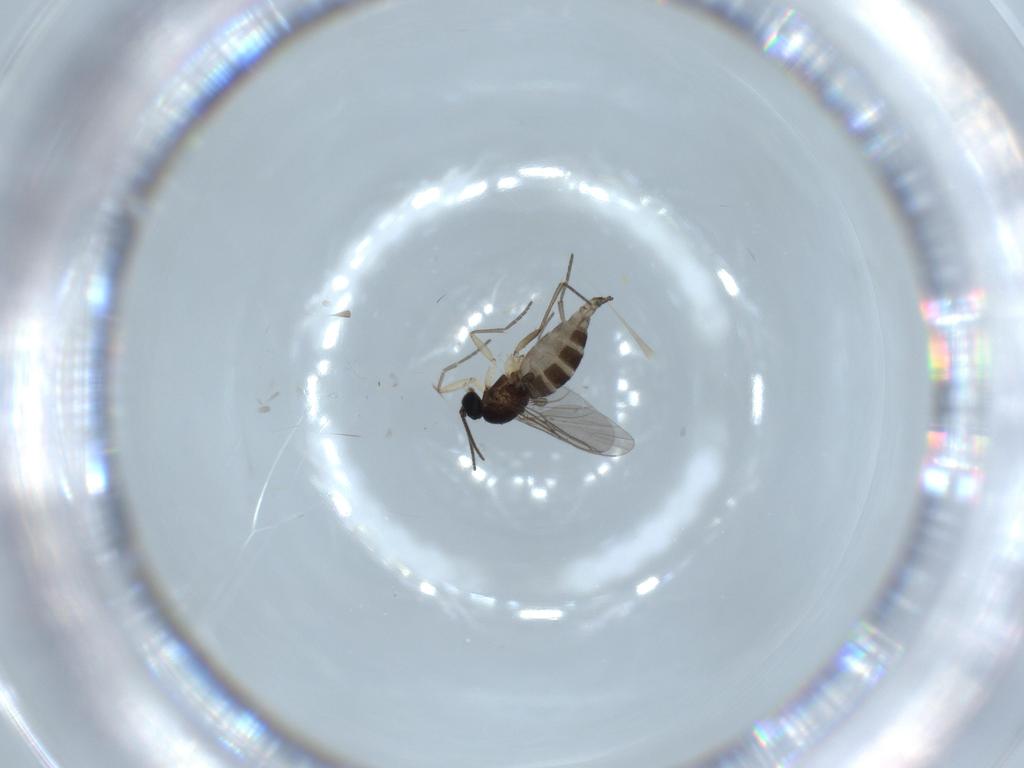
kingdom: Animalia
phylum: Arthropoda
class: Insecta
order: Diptera
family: Sciaridae
